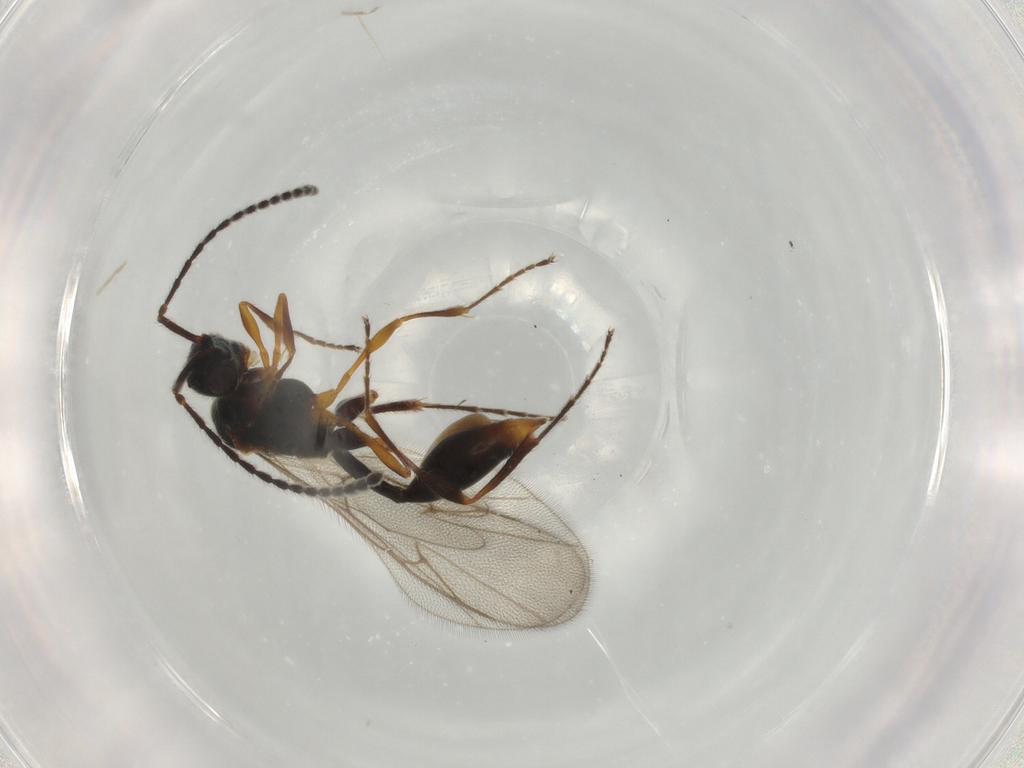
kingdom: Animalia
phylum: Arthropoda
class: Insecta
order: Hymenoptera
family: Diapriidae
